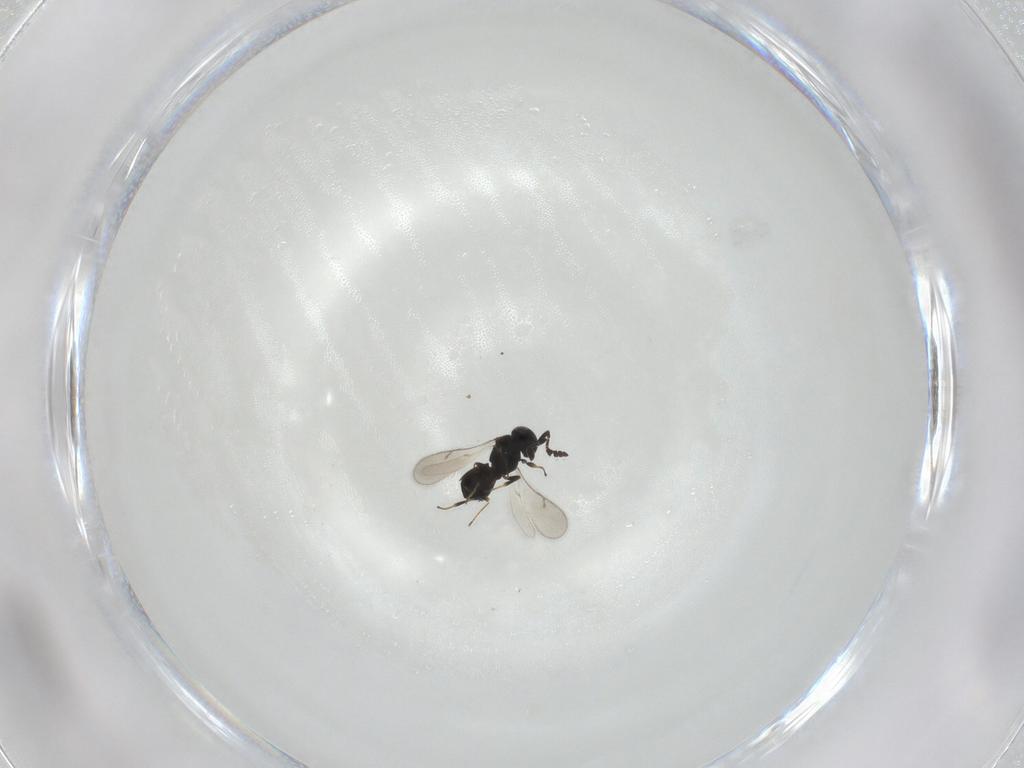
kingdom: Animalia
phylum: Arthropoda
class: Insecta
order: Hymenoptera
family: Scelionidae
